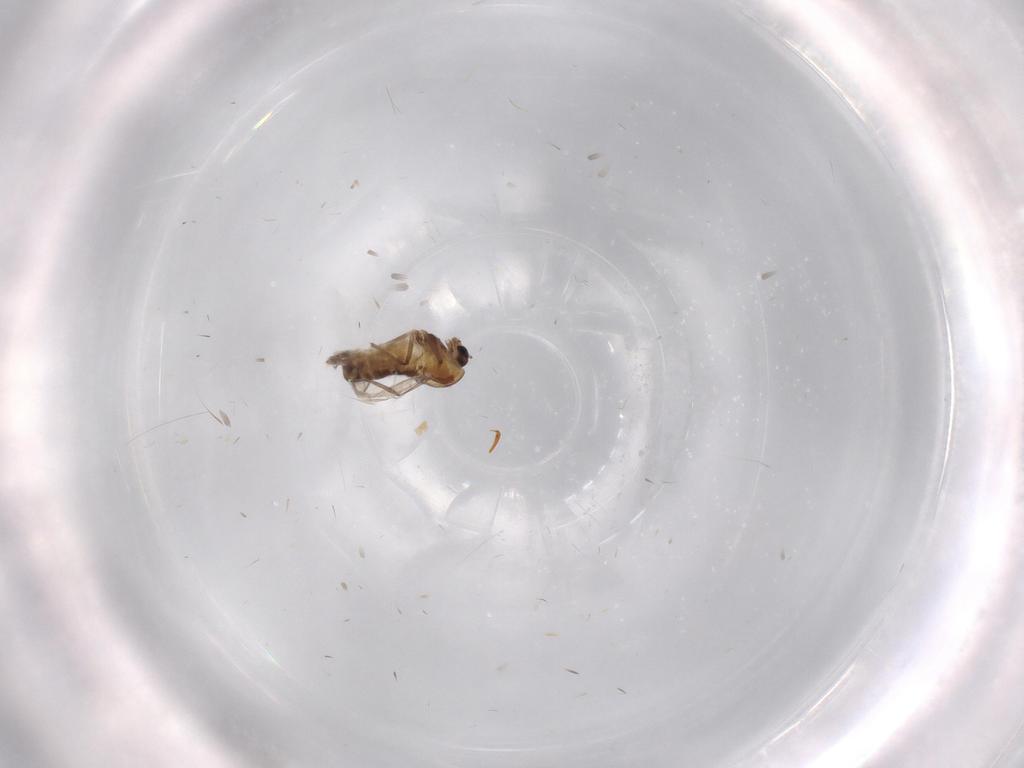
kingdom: Animalia
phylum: Arthropoda
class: Insecta
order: Diptera
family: Ditomyiidae
